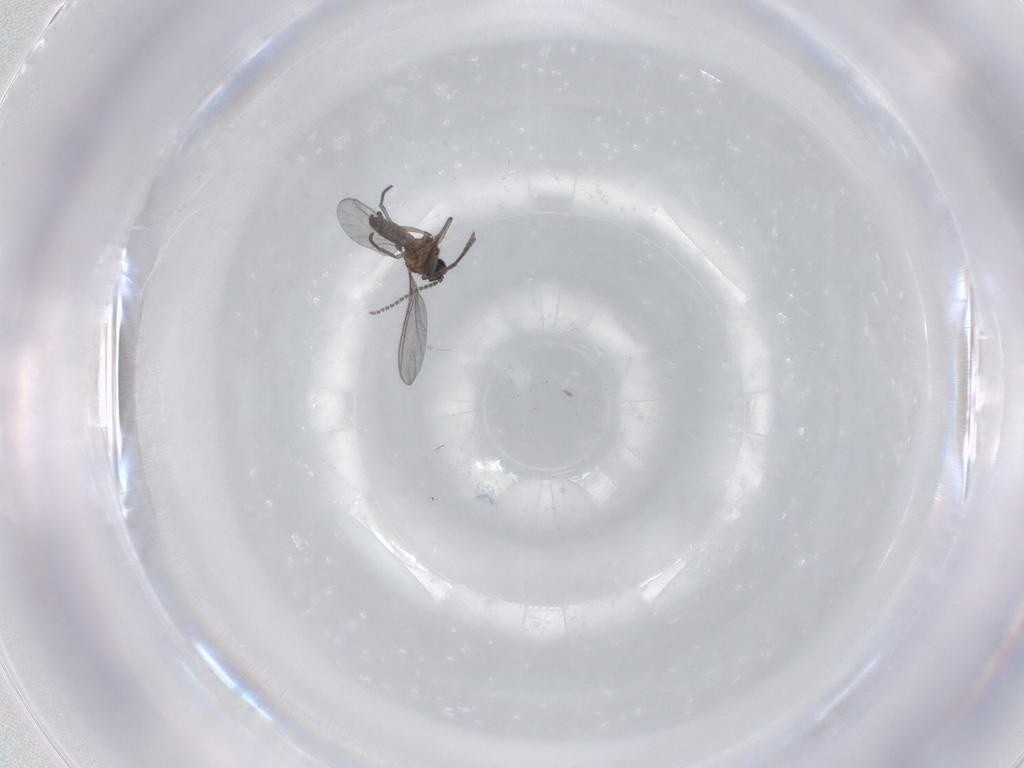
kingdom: Animalia
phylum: Arthropoda
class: Insecta
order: Diptera
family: Sciaridae
